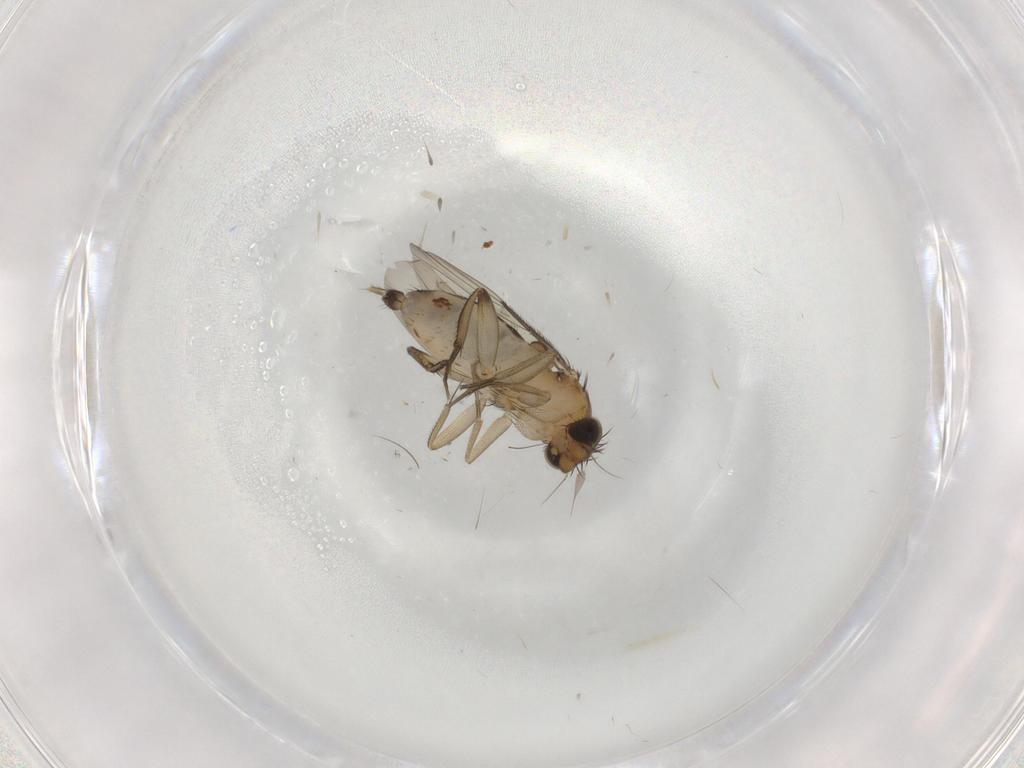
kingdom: Animalia
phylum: Arthropoda
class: Insecta
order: Diptera
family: Phoridae
